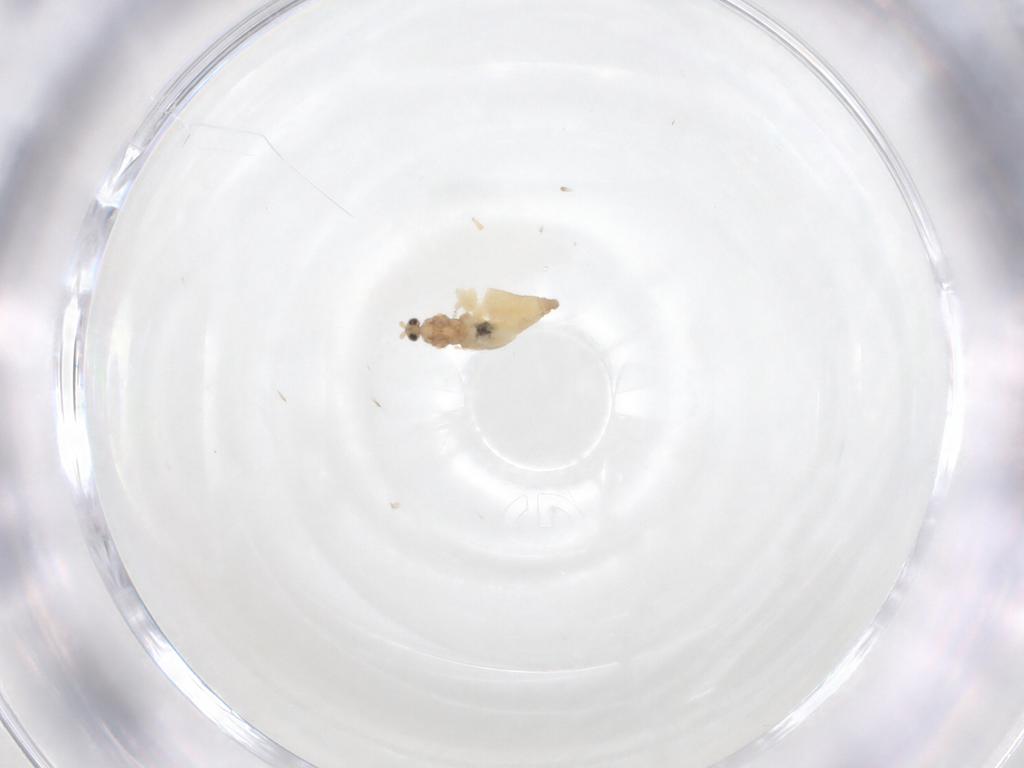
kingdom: Animalia
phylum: Arthropoda
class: Insecta
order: Diptera
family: Cecidomyiidae
